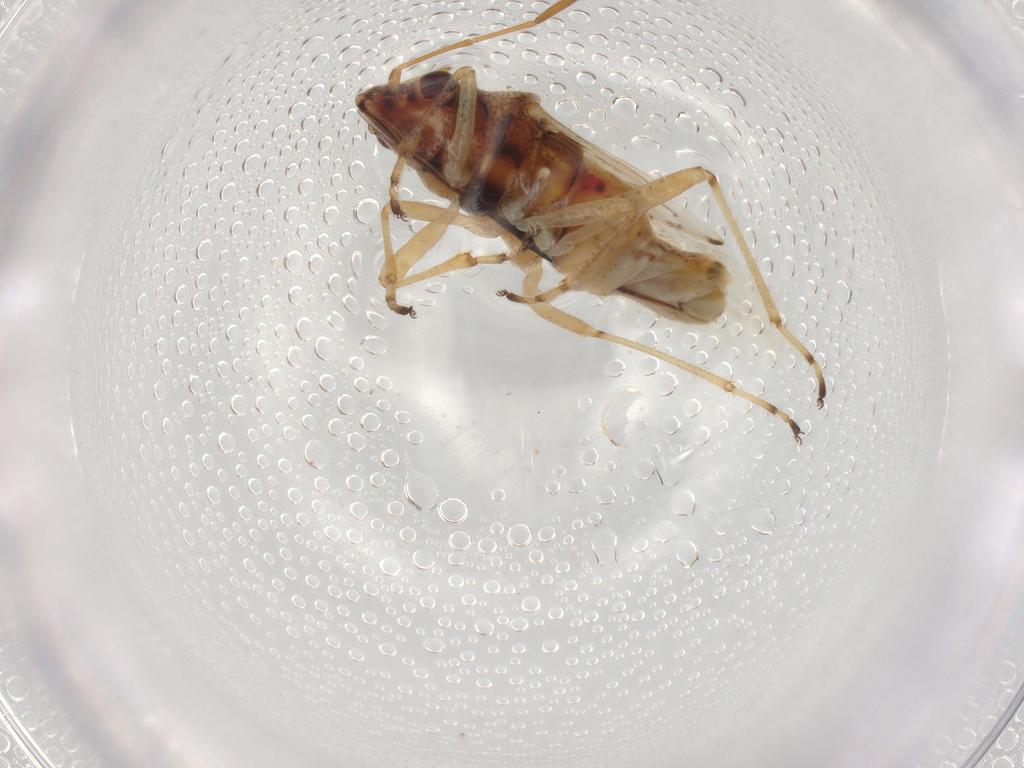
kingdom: Animalia
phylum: Arthropoda
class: Insecta
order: Hemiptera
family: Lygaeidae
